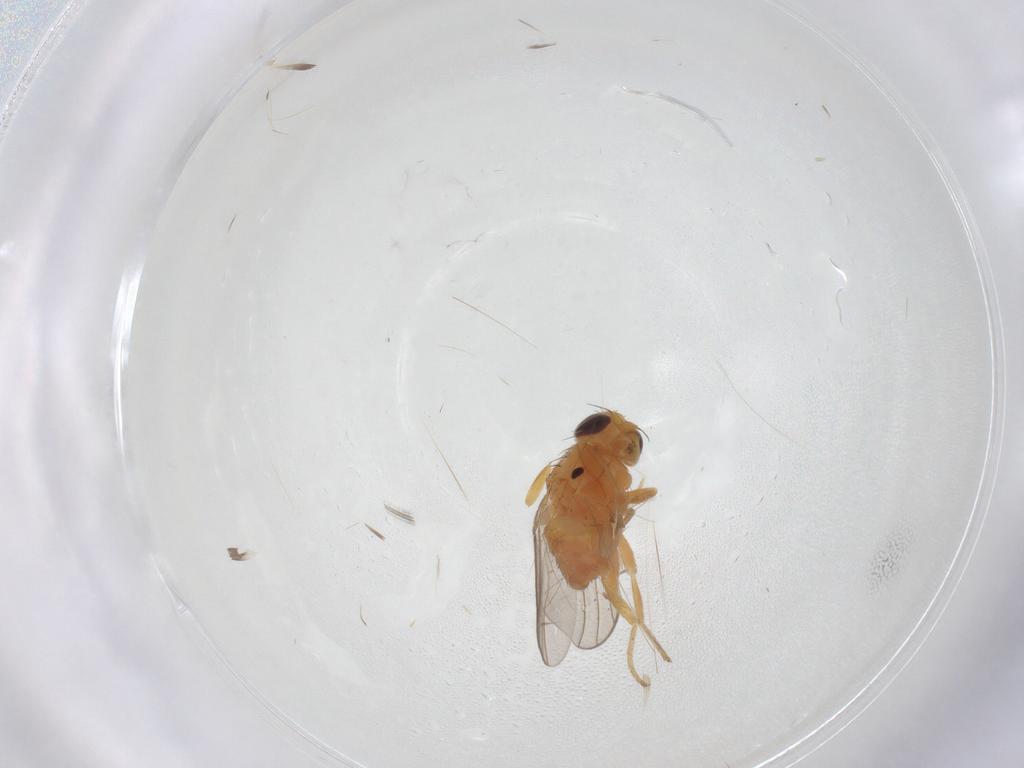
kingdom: Animalia
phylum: Arthropoda
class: Insecta
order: Diptera
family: Chloropidae
